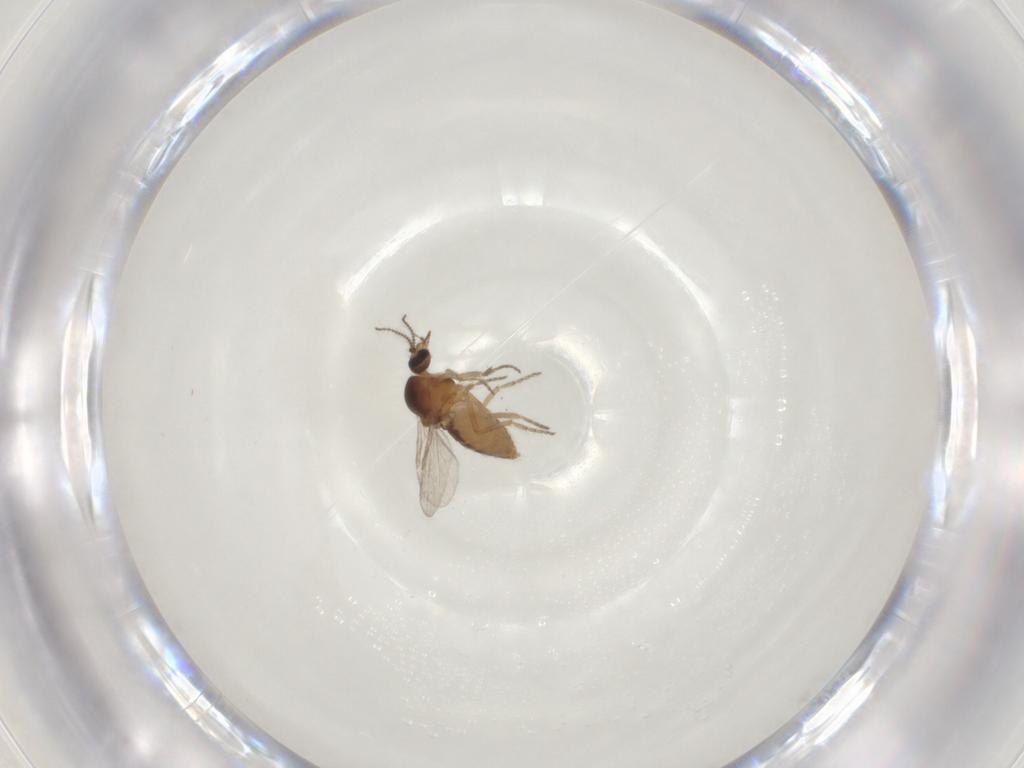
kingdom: Animalia
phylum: Arthropoda
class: Insecta
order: Diptera
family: Ceratopogonidae
